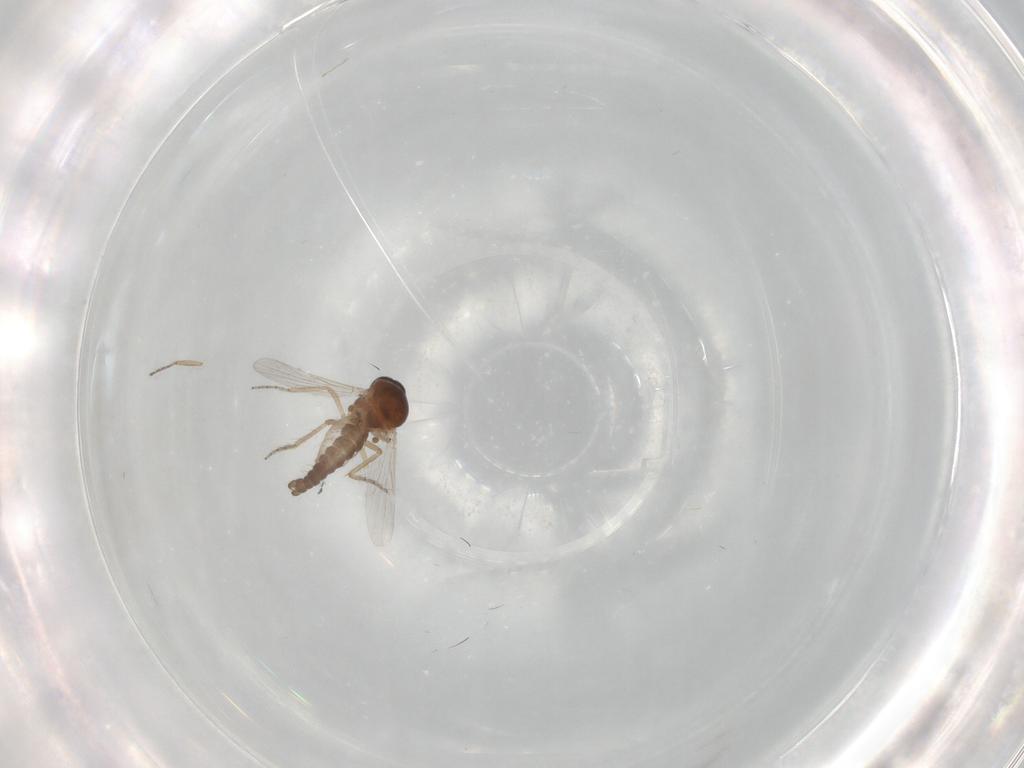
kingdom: Animalia
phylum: Arthropoda
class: Insecta
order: Diptera
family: Ceratopogonidae
